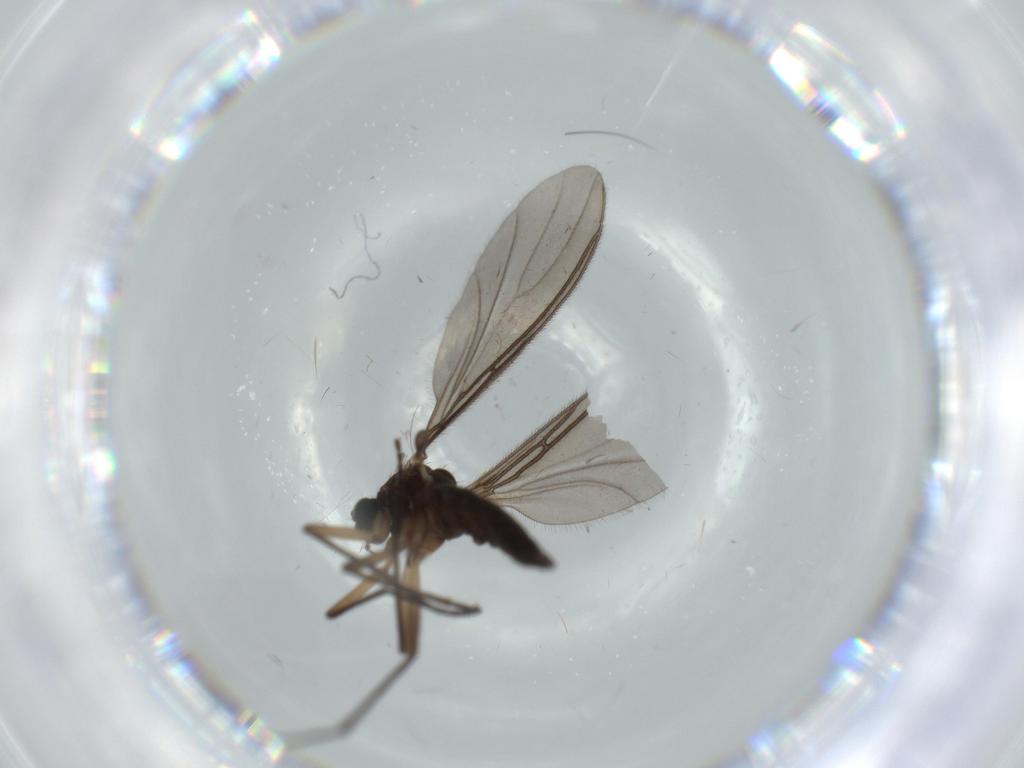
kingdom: Animalia
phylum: Arthropoda
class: Insecta
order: Diptera
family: Sciaridae
